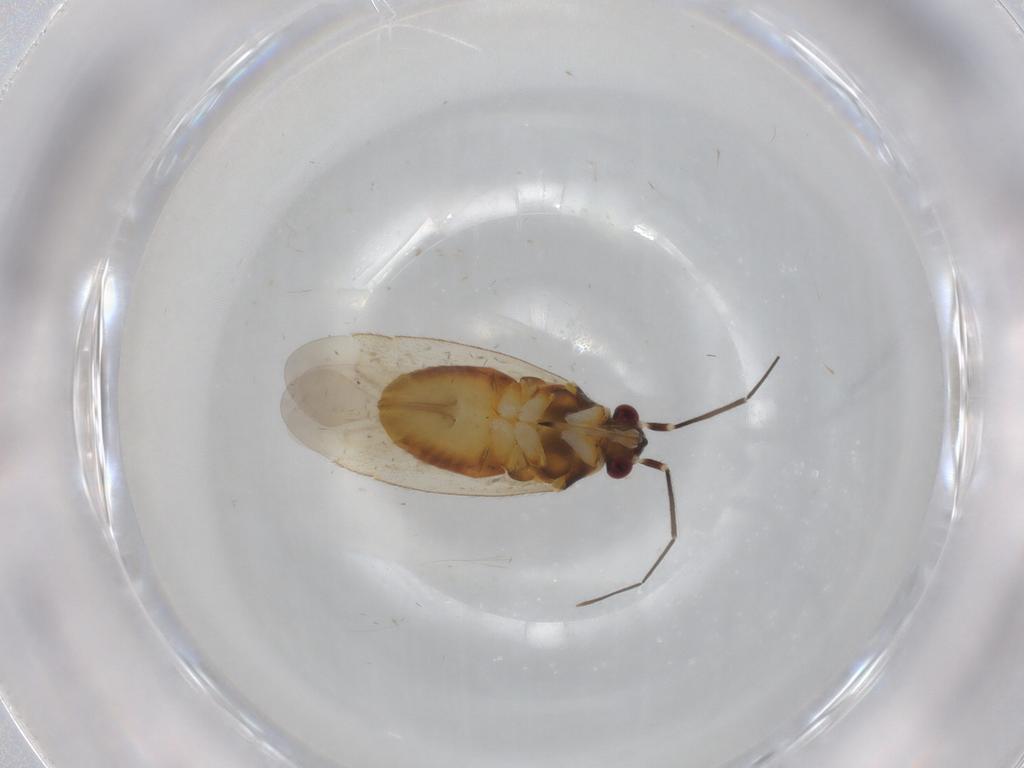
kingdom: Animalia
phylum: Arthropoda
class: Insecta
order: Hemiptera
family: Miridae
